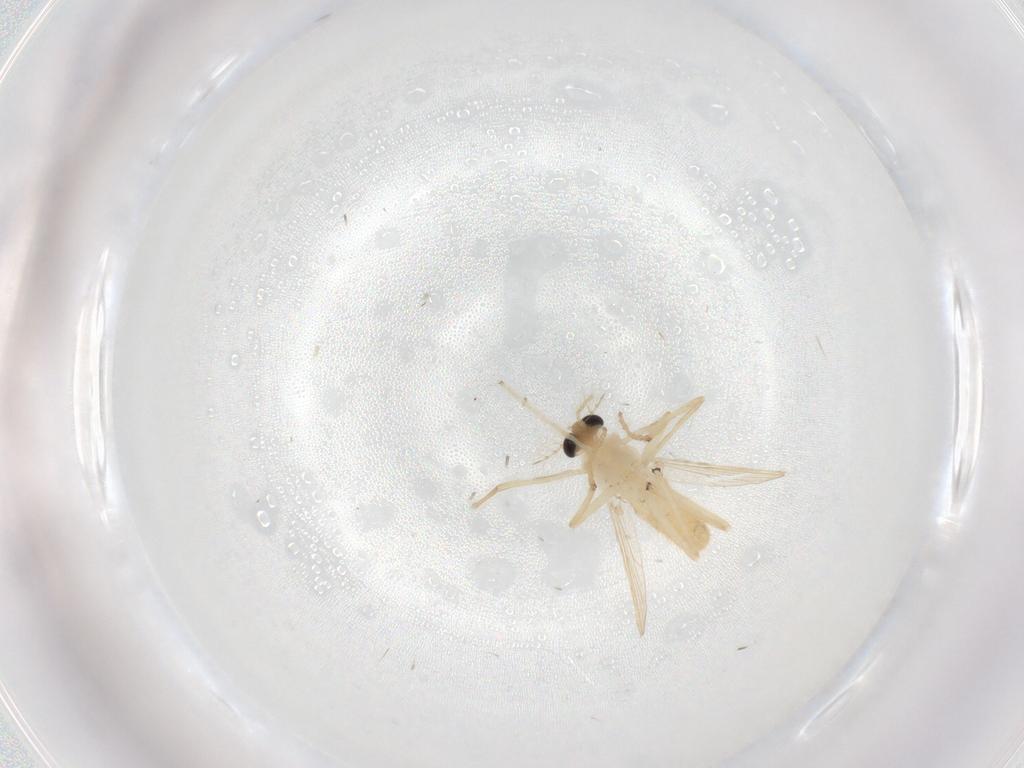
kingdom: Animalia
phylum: Arthropoda
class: Insecta
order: Diptera
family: Chironomidae
